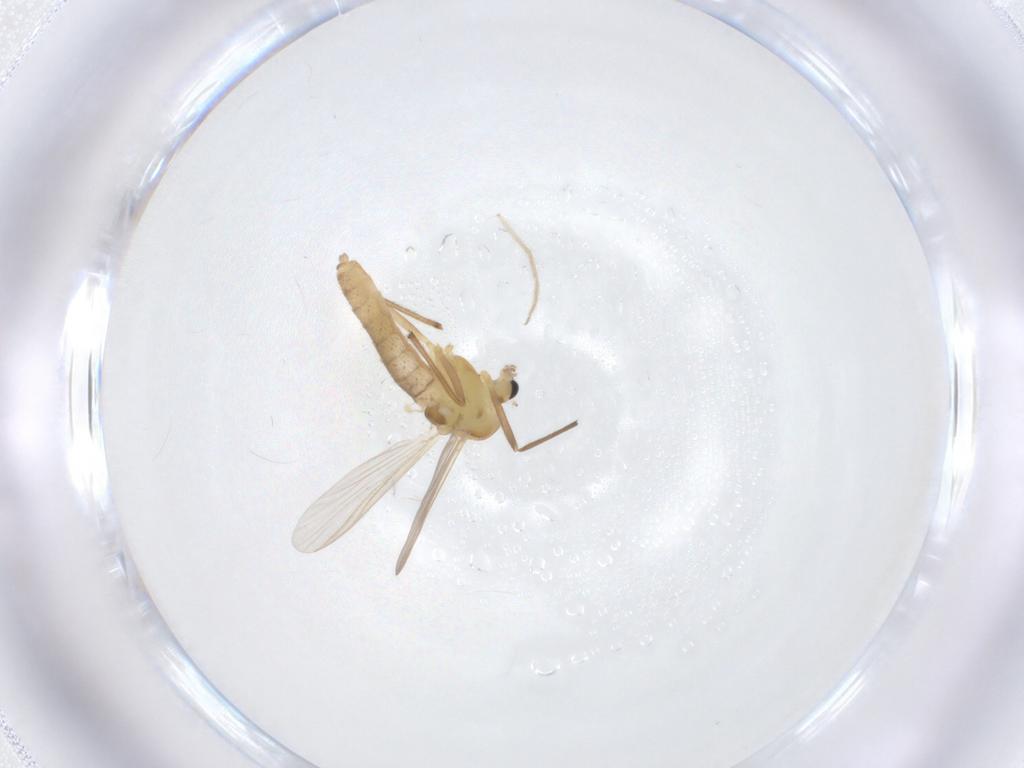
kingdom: Animalia
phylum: Arthropoda
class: Insecta
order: Diptera
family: Chironomidae
